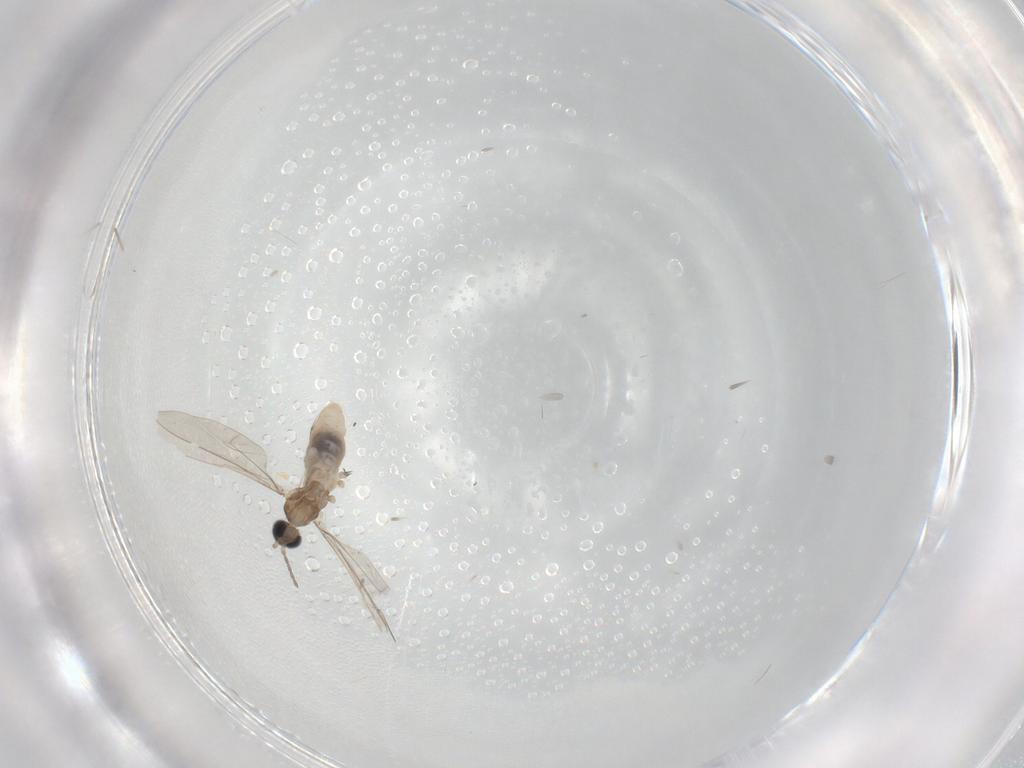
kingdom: Animalia
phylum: Arthropoda
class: Insecta
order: Diptera
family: Cecidomyiidae
